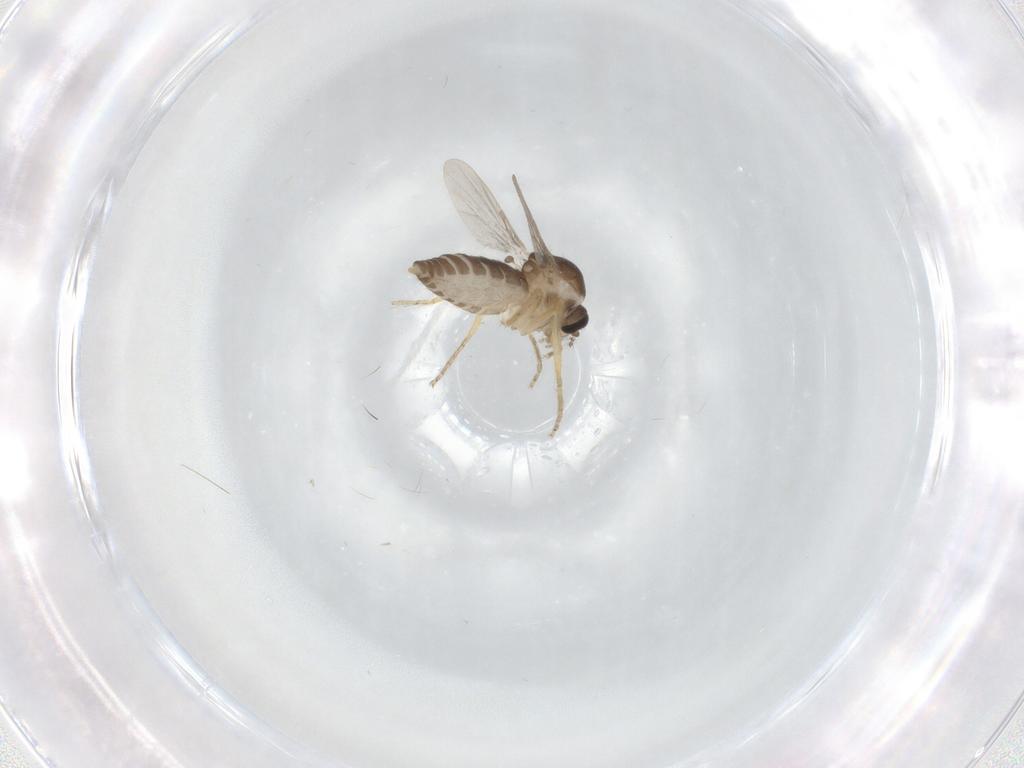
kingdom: Animalia
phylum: Arthropoda
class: Insecta
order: Diptera
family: Ceratopogonidae
